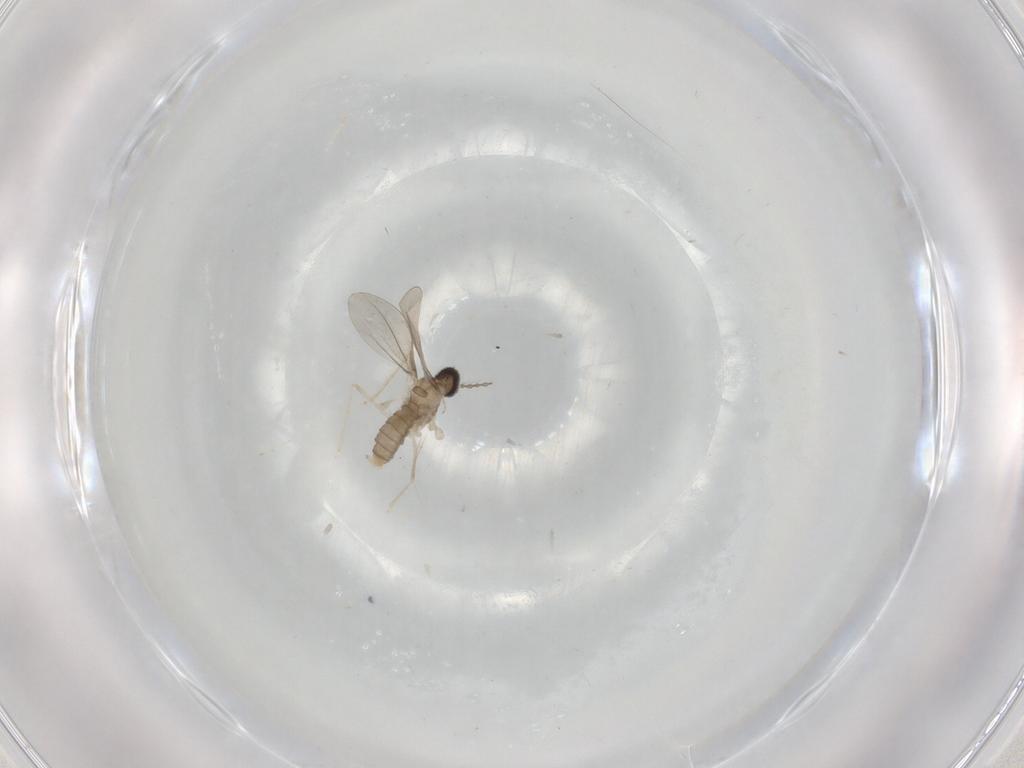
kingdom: Animalia
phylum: Arthropoda
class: Insecta
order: Diptera
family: Cecidomyiidae
